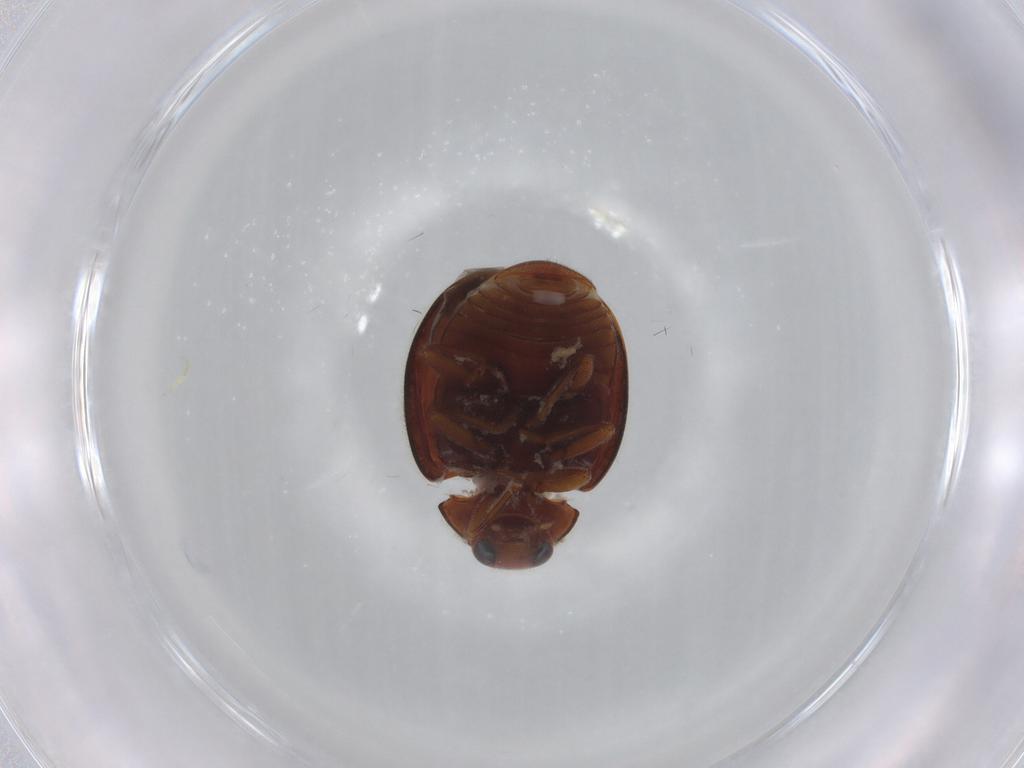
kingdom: Animalia
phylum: Arthropoda
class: Insecta
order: Coleoptera
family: Coccinellidae
